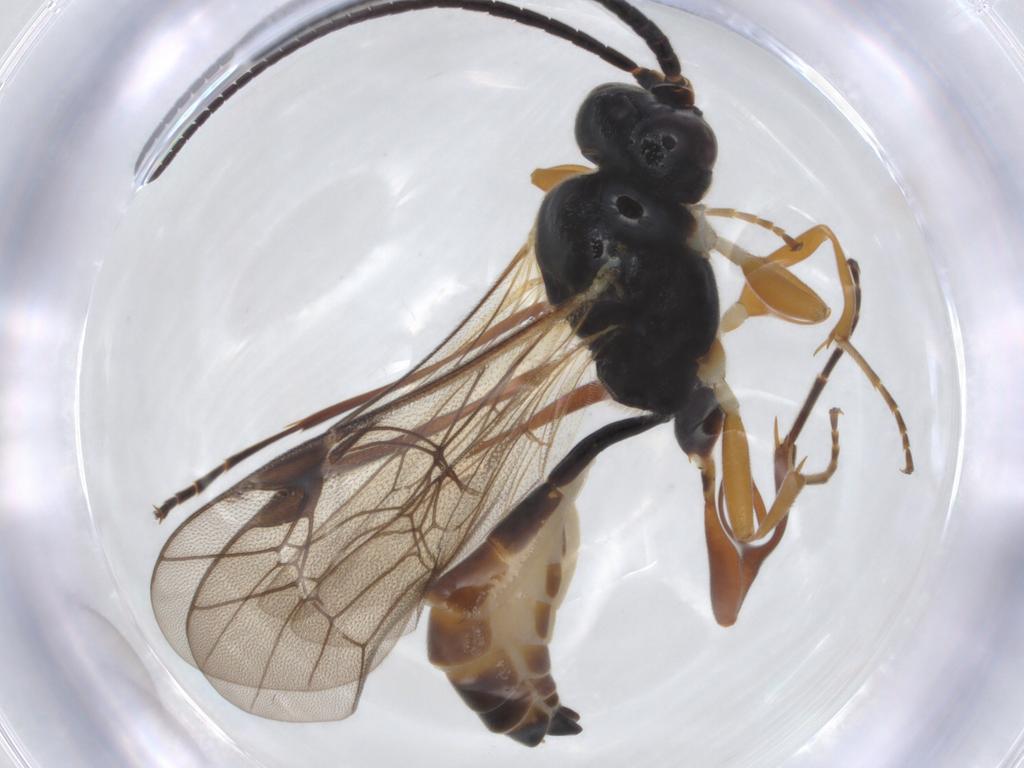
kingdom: Animalia
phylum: Arthropoda
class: Insecta
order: Hymenoptera
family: Ichneumonidae
